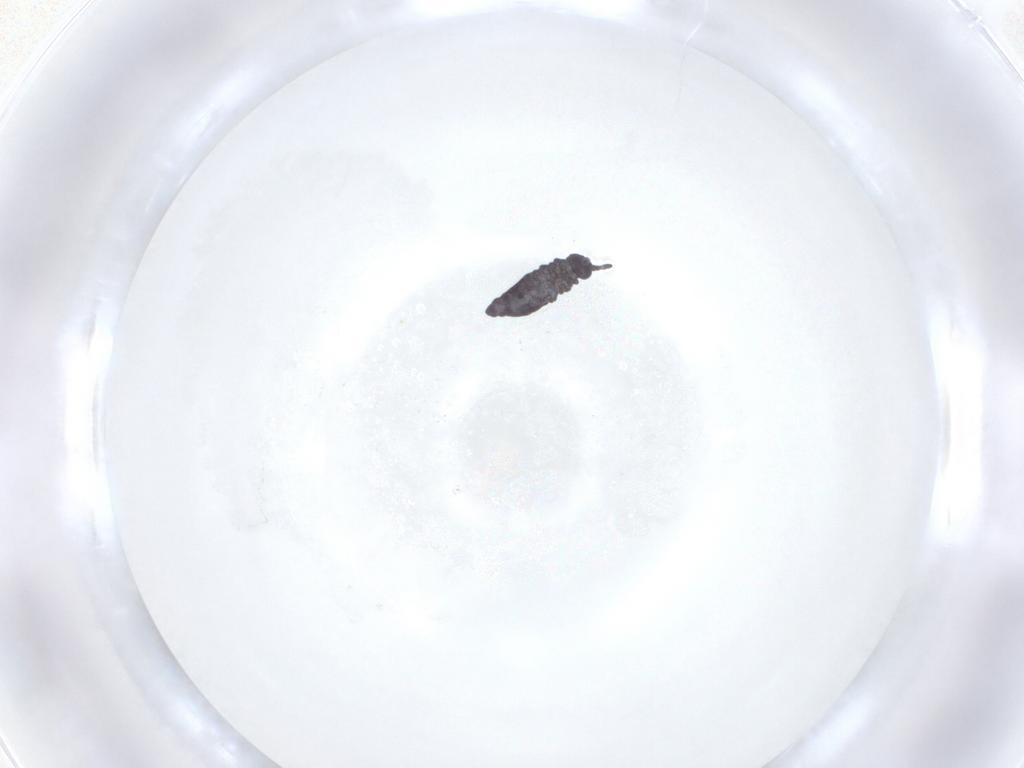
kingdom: Animalia
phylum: Arthropoda
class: Collembola
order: Poduromorpha
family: Hypogastruridae
